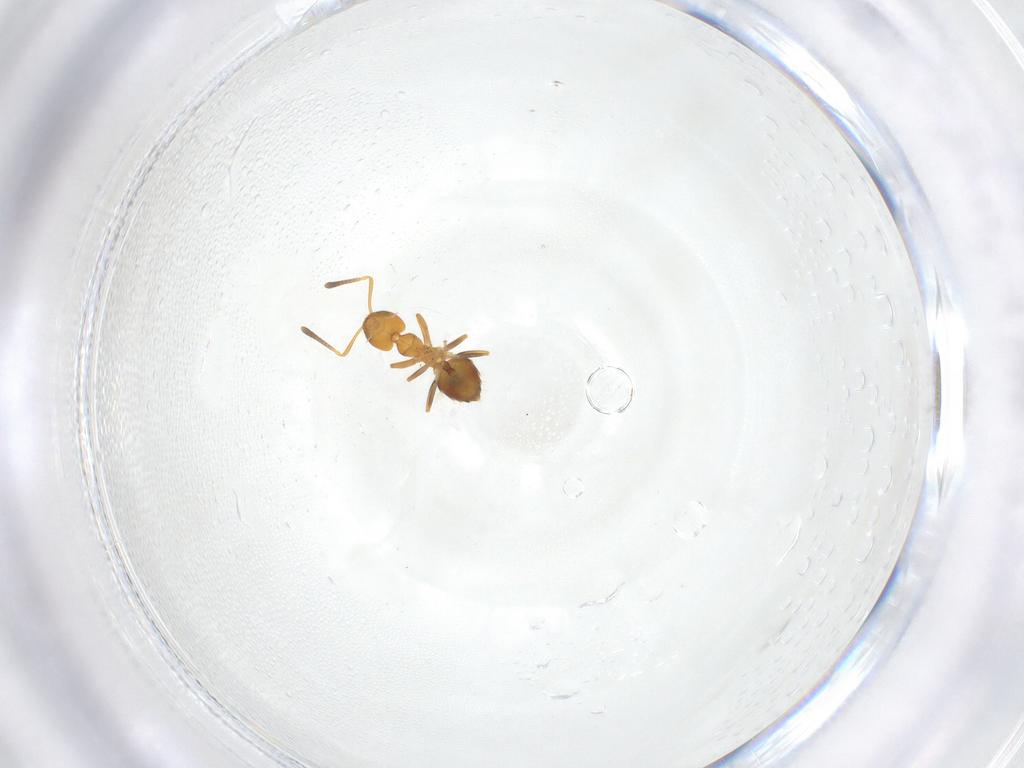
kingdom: Animalia
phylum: Arthropoda
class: Insecta
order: Hymenoptera
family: Formicidae
